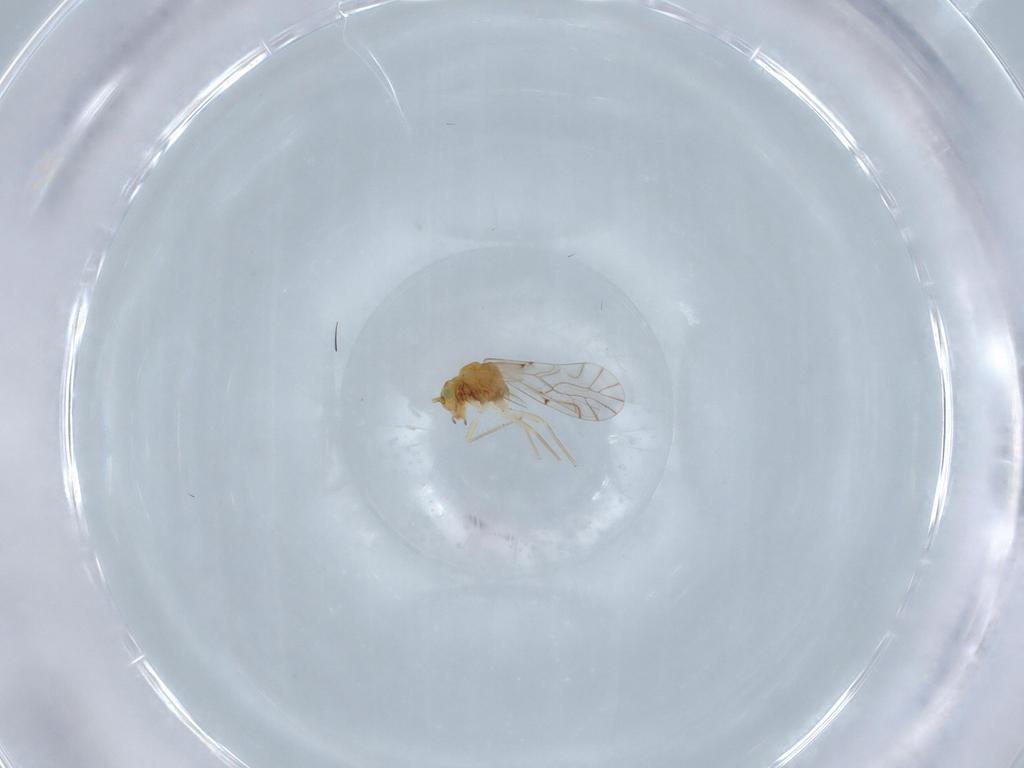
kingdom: Animalia
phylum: Arthropoda
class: Insecta
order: Psocodea
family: Lachesillidae
